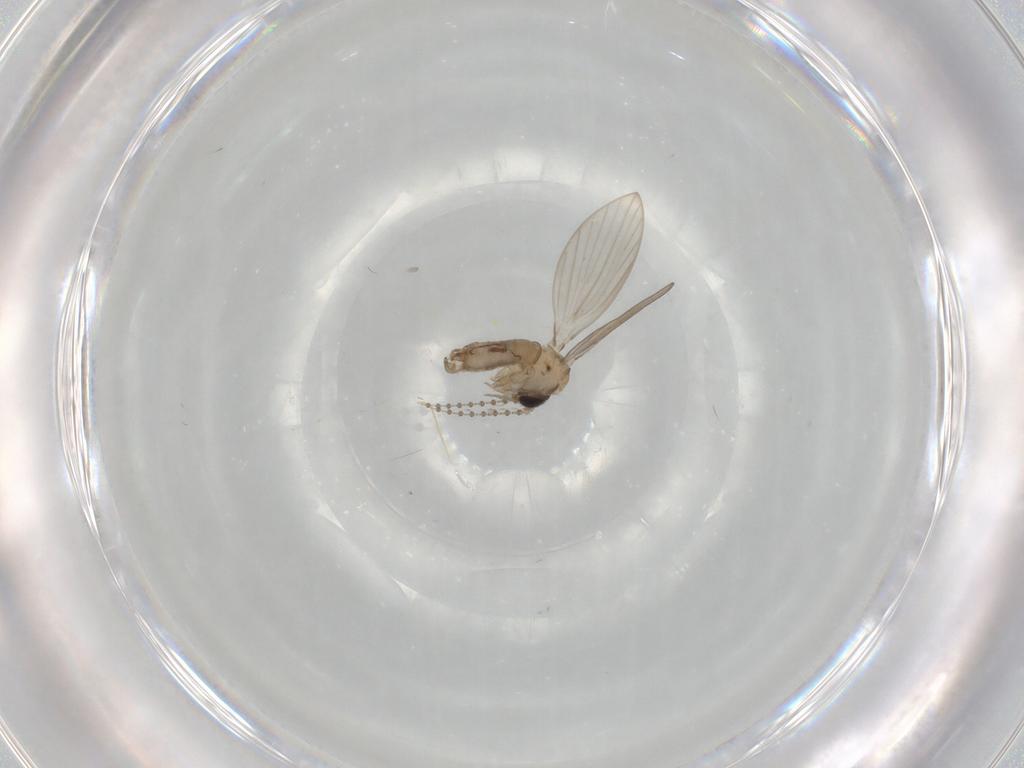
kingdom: Animalia
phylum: Arthropoda
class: Insecta
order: Diptera
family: Psychodidae
